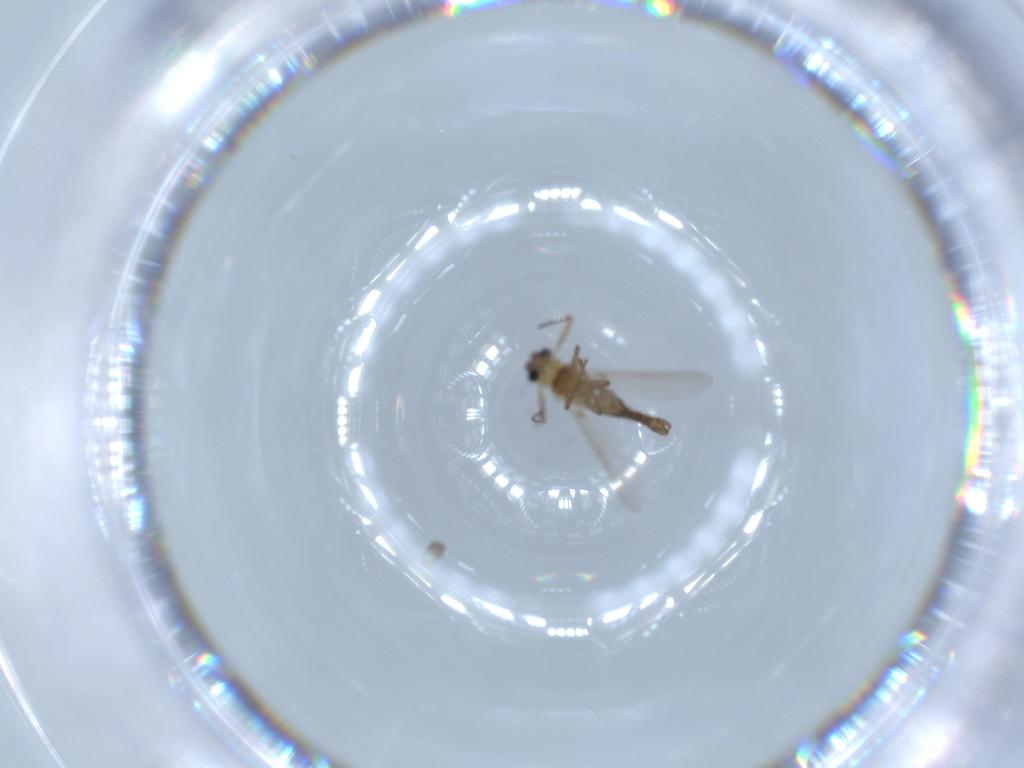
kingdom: Animalia
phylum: Arthropoda
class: Insecta
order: Diptera
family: Chironomidae
